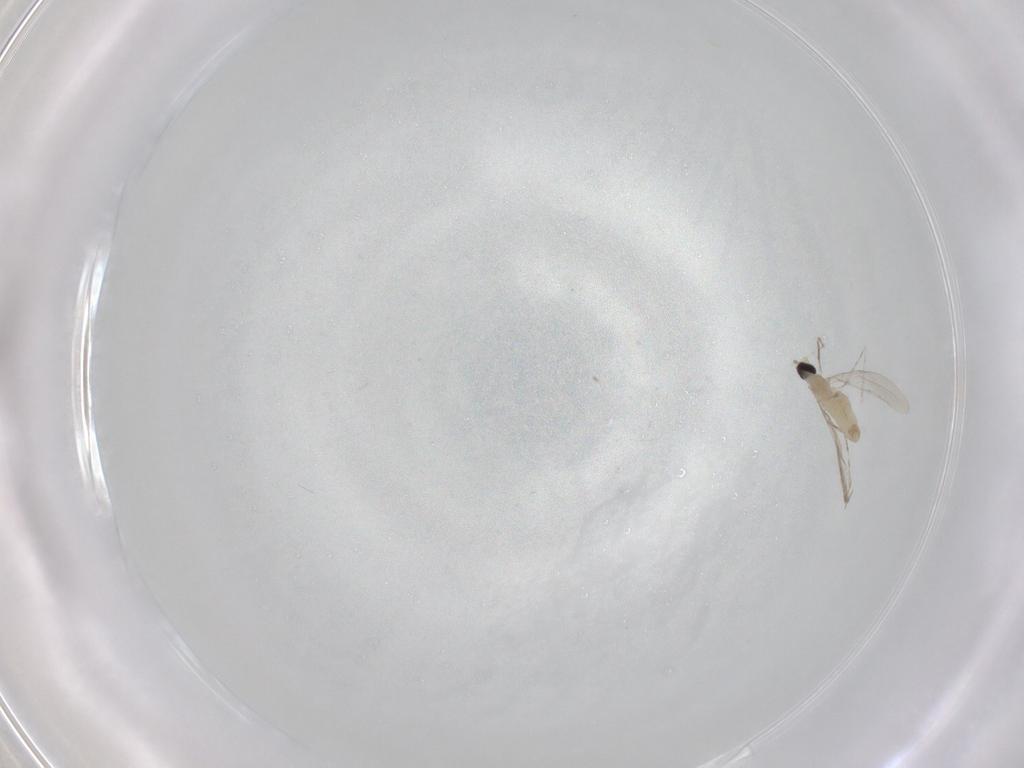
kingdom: Animalia
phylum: Arthropoda
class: Insecta
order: Diptera
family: Cecidomyiidae
